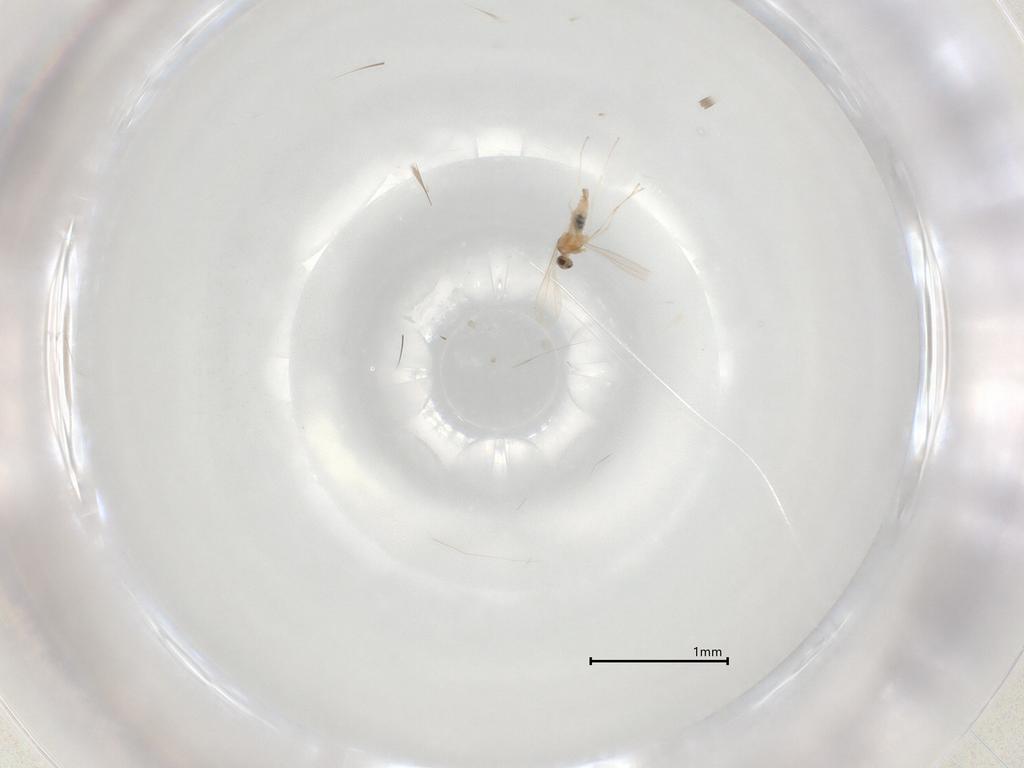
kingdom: Animalia
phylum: Arthropoda
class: Insecta
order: Diptera
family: Cecidomyiidae
